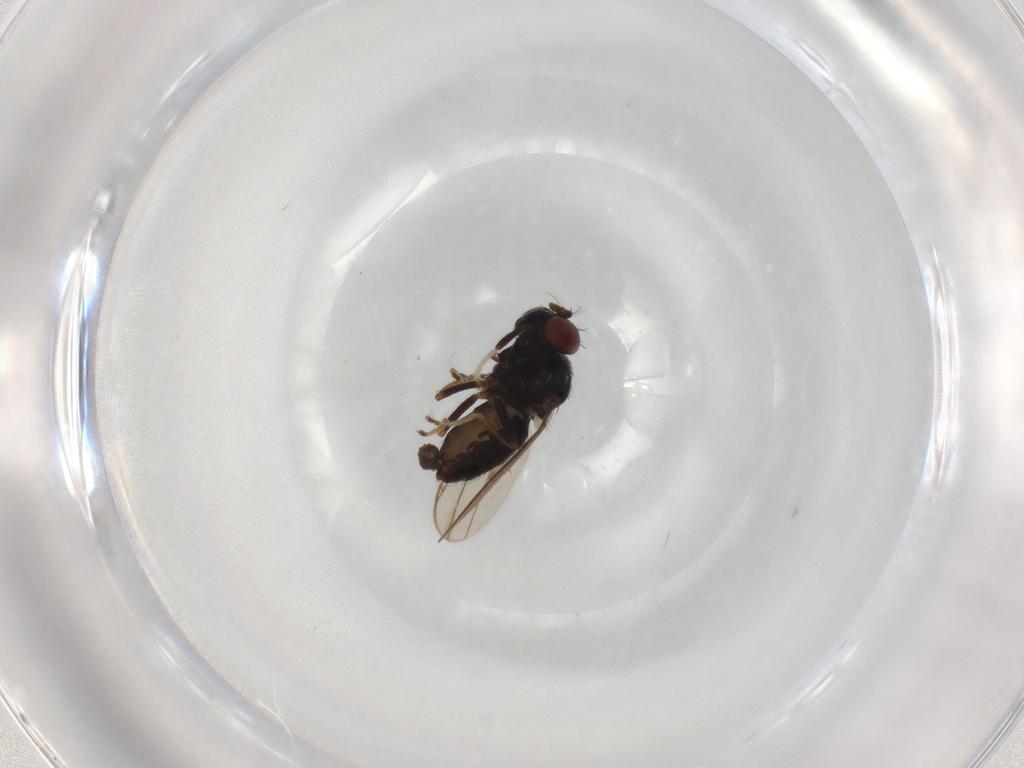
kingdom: Animalia
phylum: Arthropoda
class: Insecta
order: Diptera
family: Ephydridae
